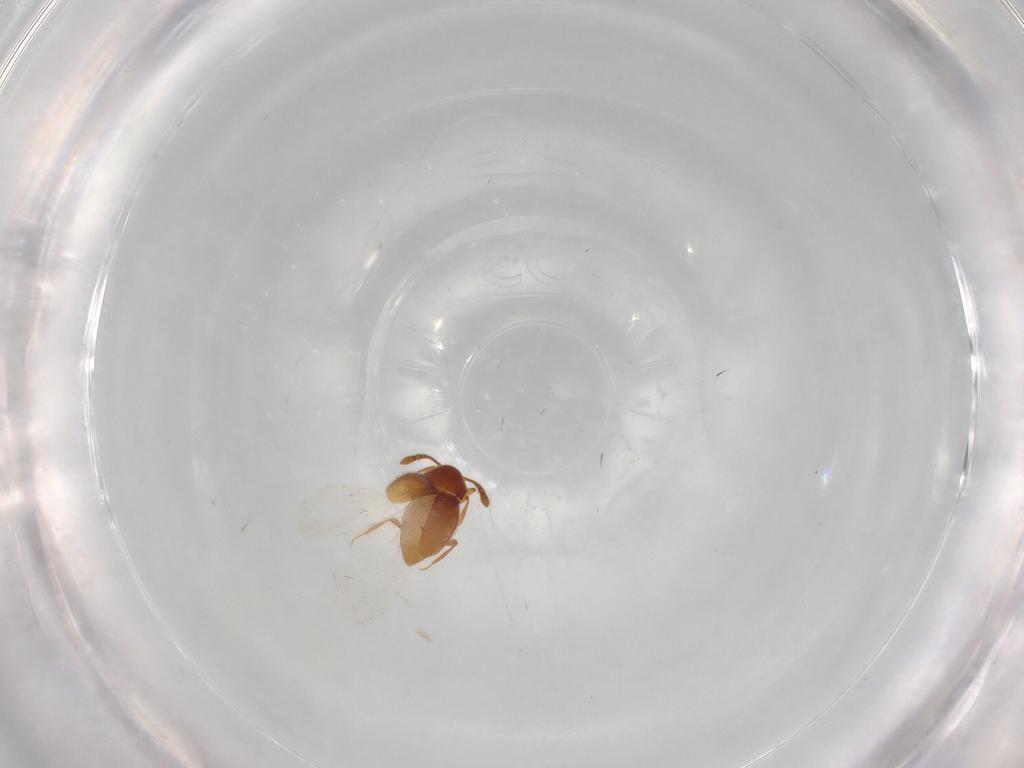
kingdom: Animalia
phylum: Arthropoda
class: Insecta
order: Coleoptera
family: Staphylinidae
